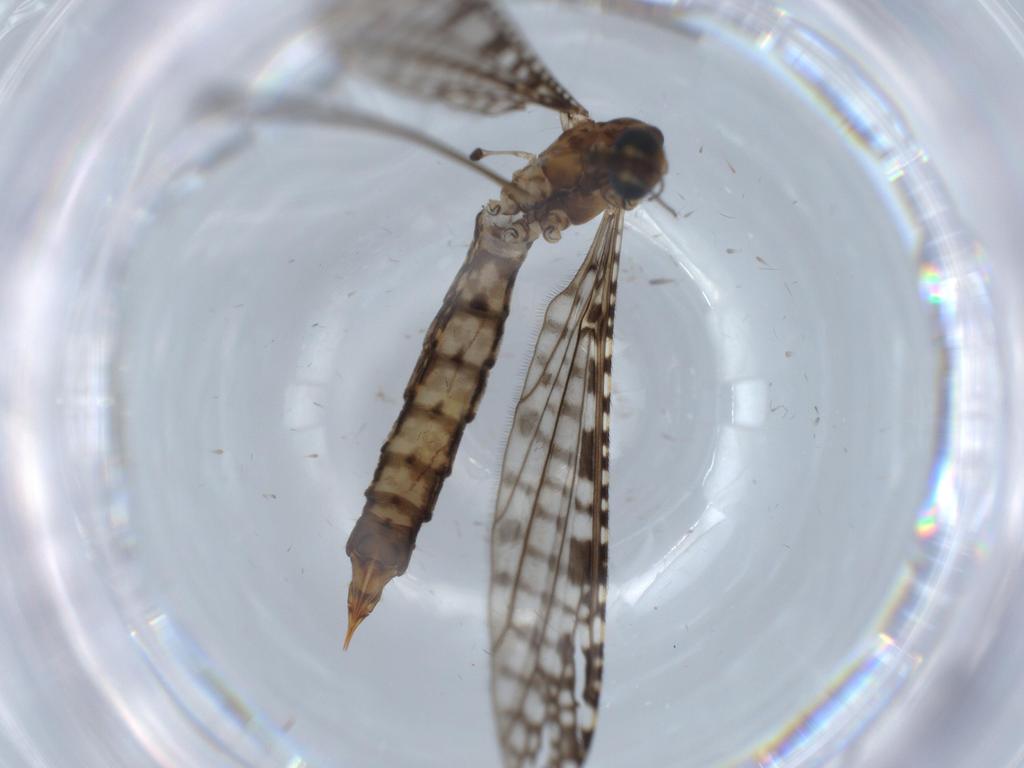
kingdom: Animalia
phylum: Arthropoda
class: Insecta
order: Diptera
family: Limoniidae
